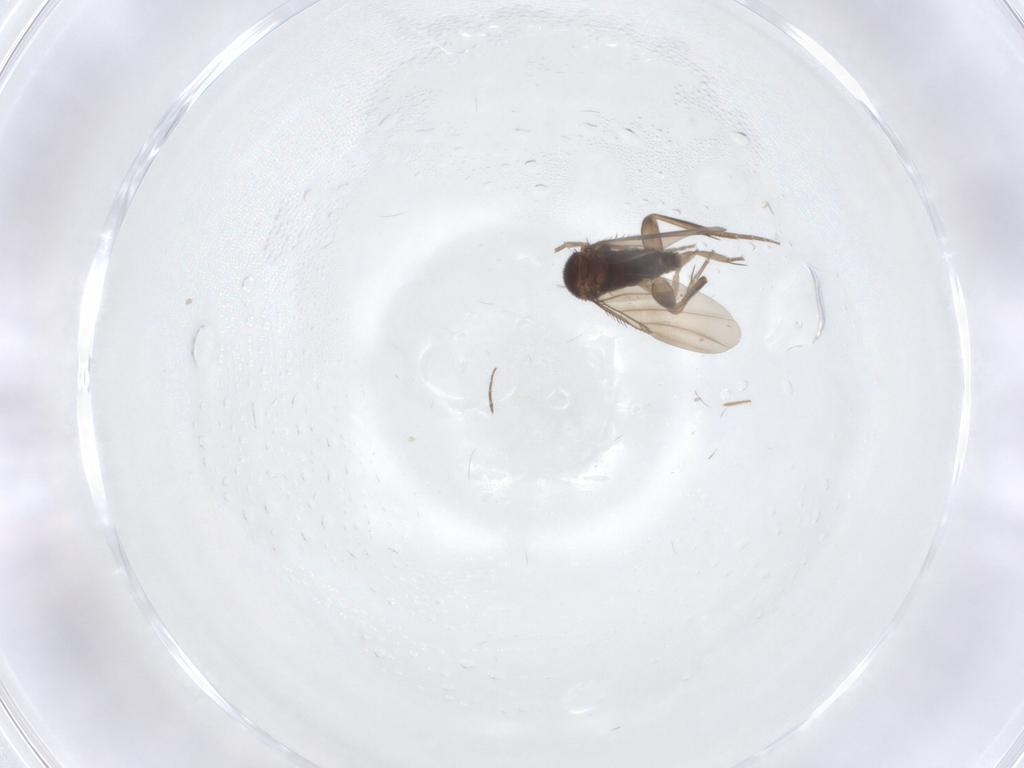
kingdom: Animalia
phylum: Arthropoda
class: Insecta
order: Diptera
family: Phoridae
